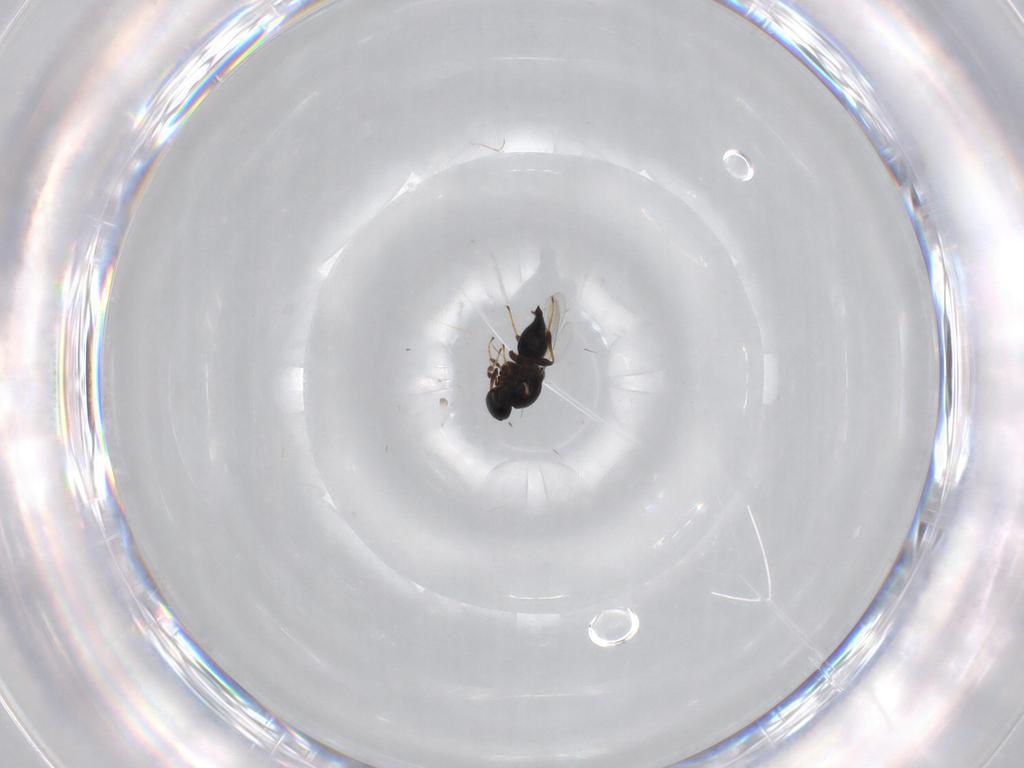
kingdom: Animalia
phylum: Arthropoda
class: Insecta
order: Hymenoptera
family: Platygastridae
